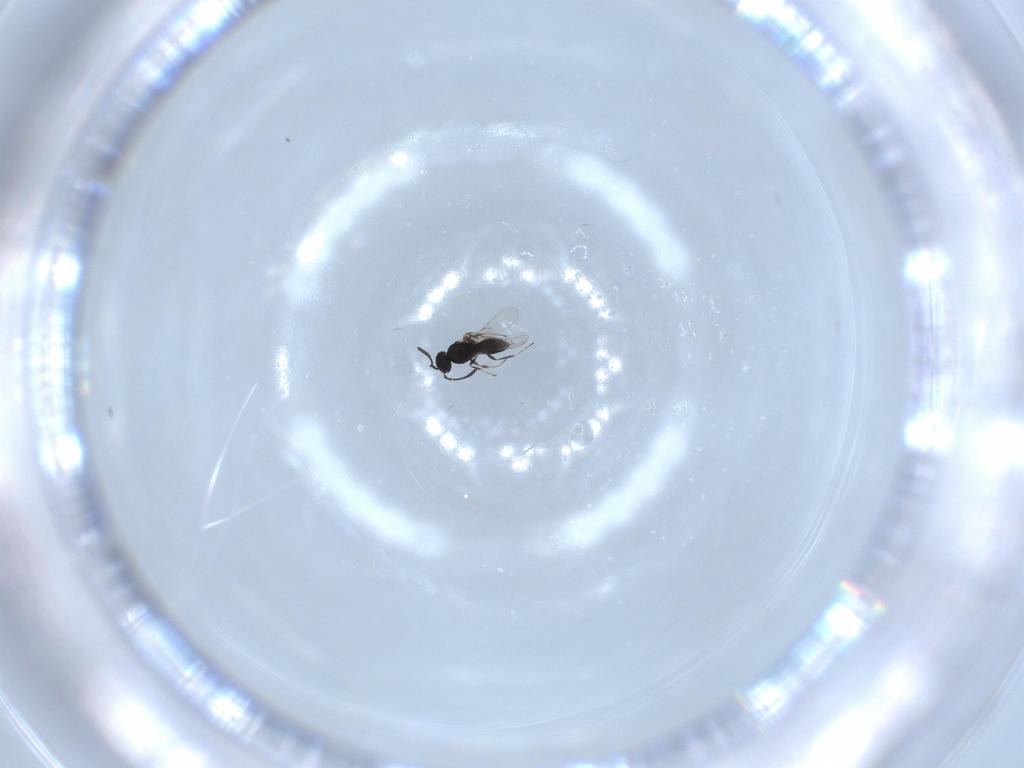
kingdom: Animalia
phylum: Arthropoda
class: Insecta
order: Hymenoptera
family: Scelionidae
